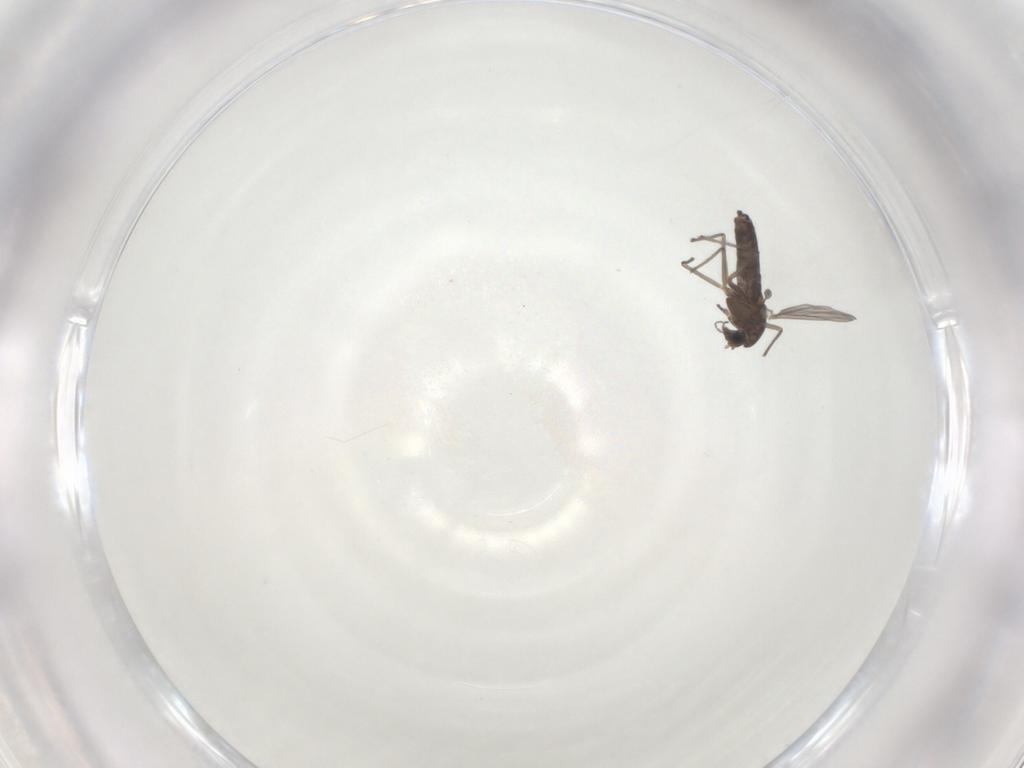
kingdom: Animalia
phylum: Arthropoda
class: Insecta
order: Diptera
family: Chironomidae
